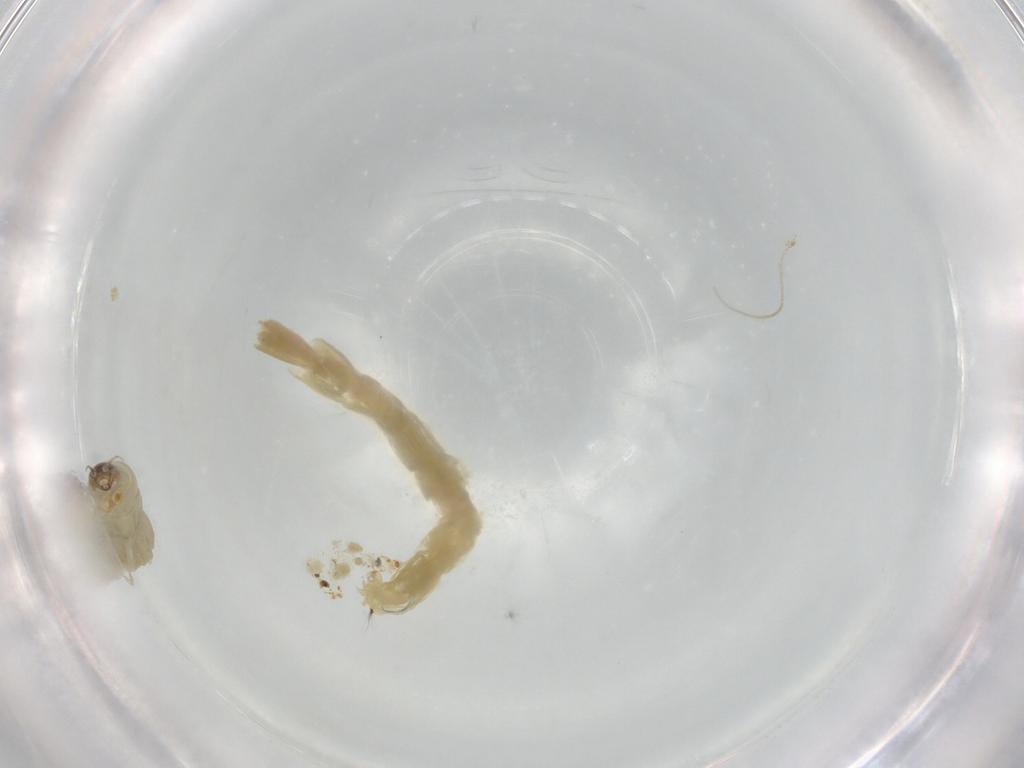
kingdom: Animalia
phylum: Arthropoda
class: Insecta
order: Diptera
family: Chironomidae
